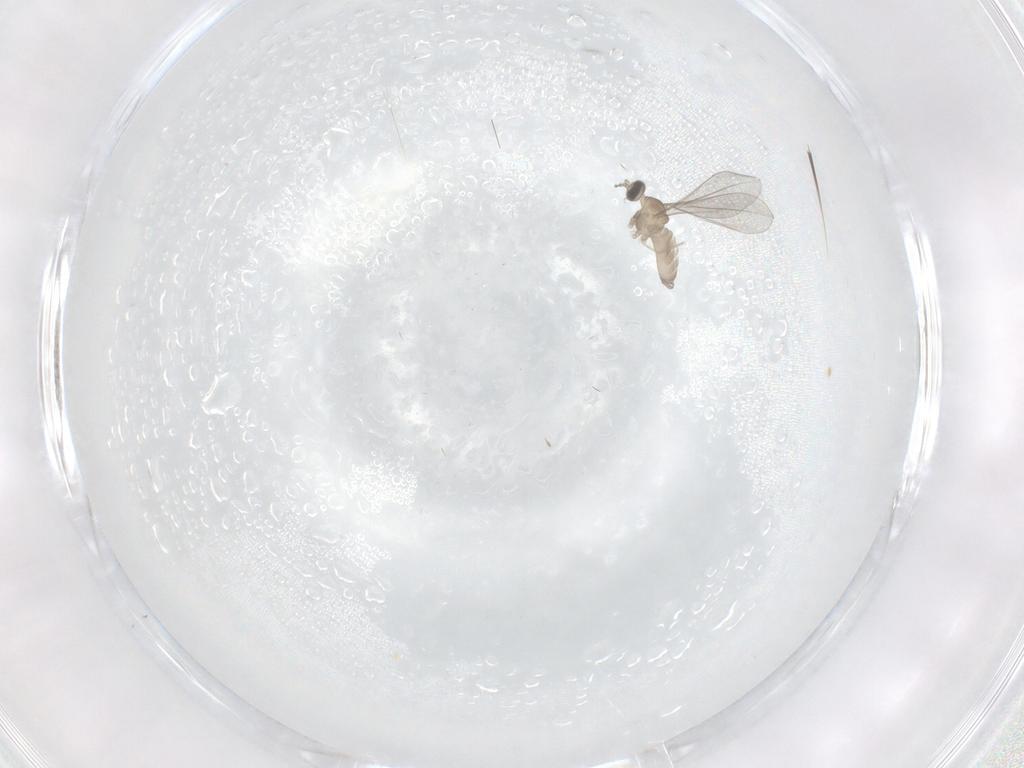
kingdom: Animalia
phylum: Arthropoda
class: Insecta
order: Diptera
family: Cecidomyiidae
